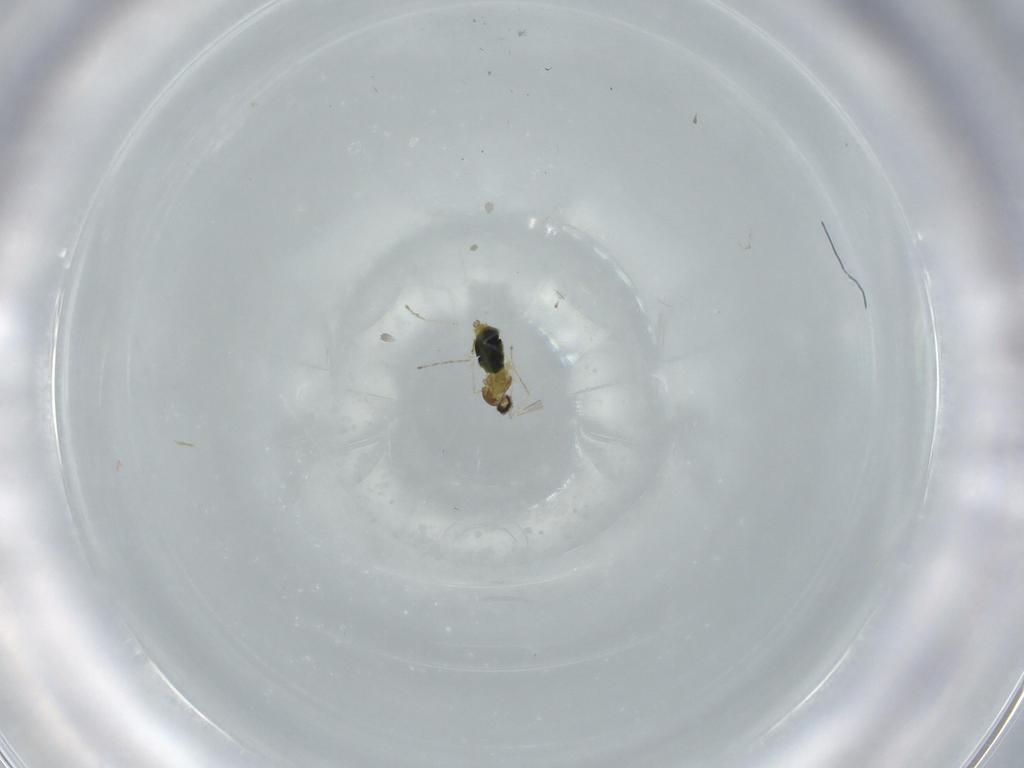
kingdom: Animalia
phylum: Arthropoda
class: Insecta
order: Diptera
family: Cecidomyiidae
